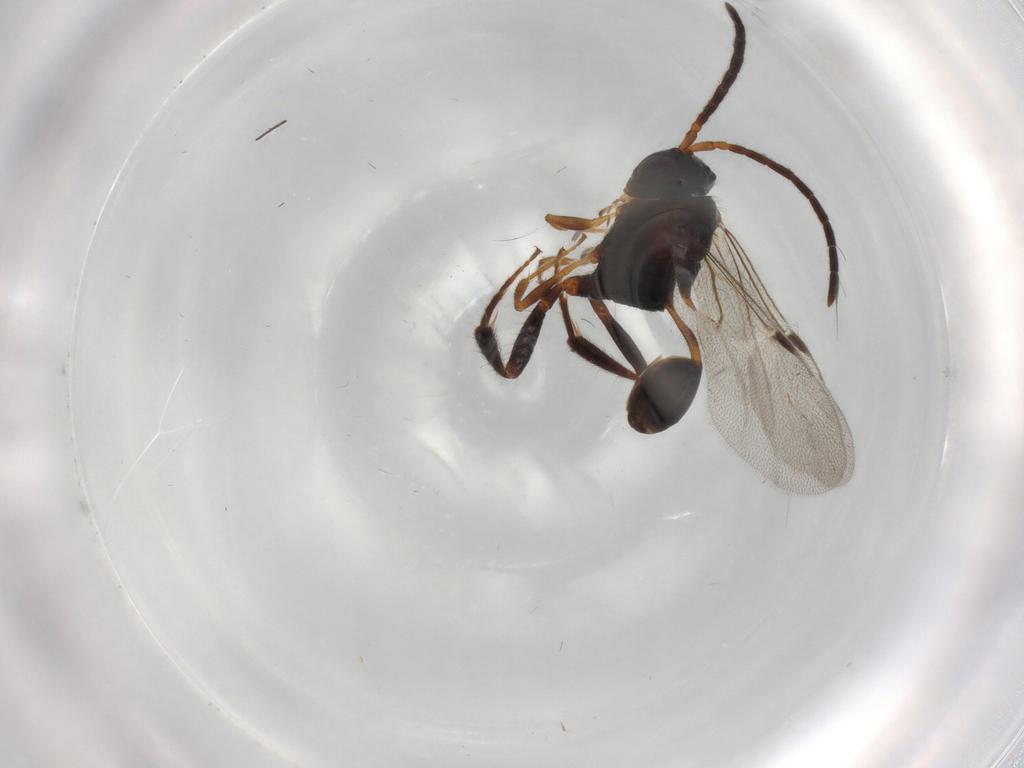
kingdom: Animalia
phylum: Arthropoda
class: Insecta
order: Hymenoptera
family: Evaniidae
